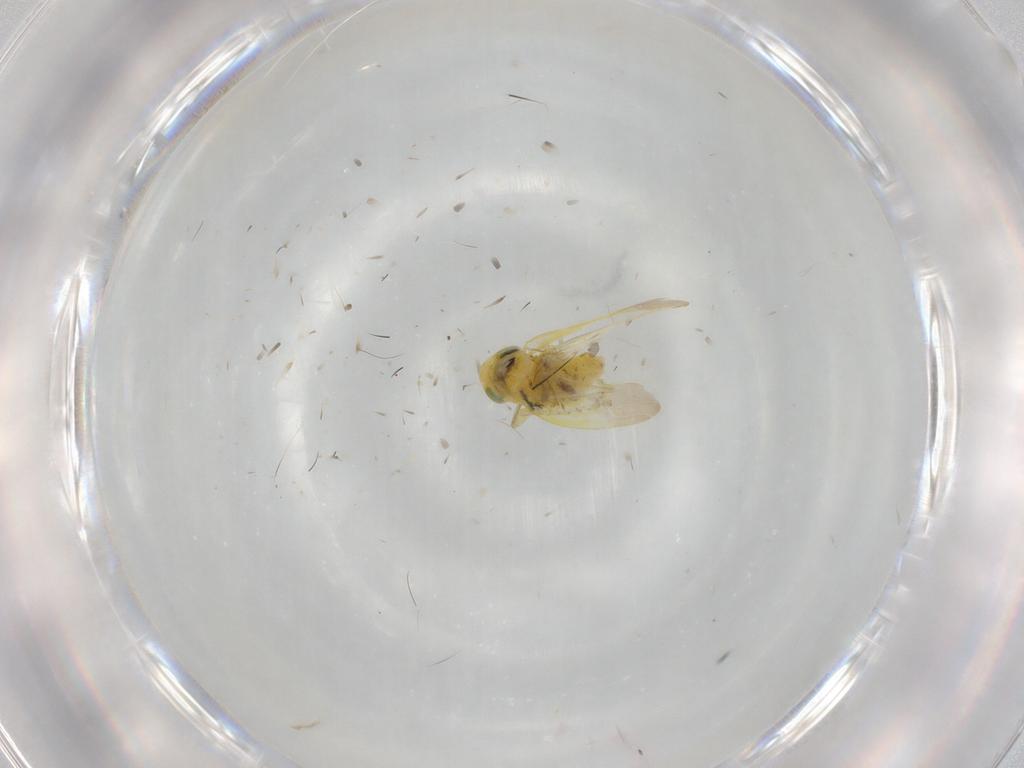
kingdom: Animalia
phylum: Arthropoda
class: Insecta
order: Hemiptera
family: Cicadellidae
